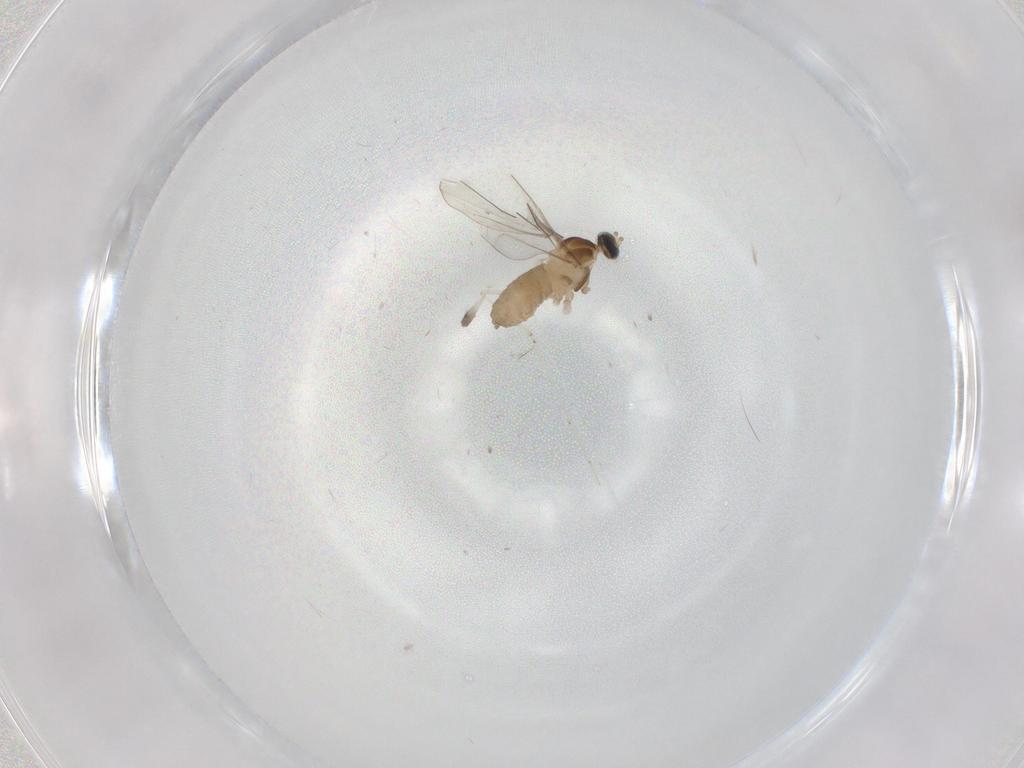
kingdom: Animalia
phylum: Arthropoda
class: Insecta
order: Diptera
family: Cecidomyiidae
